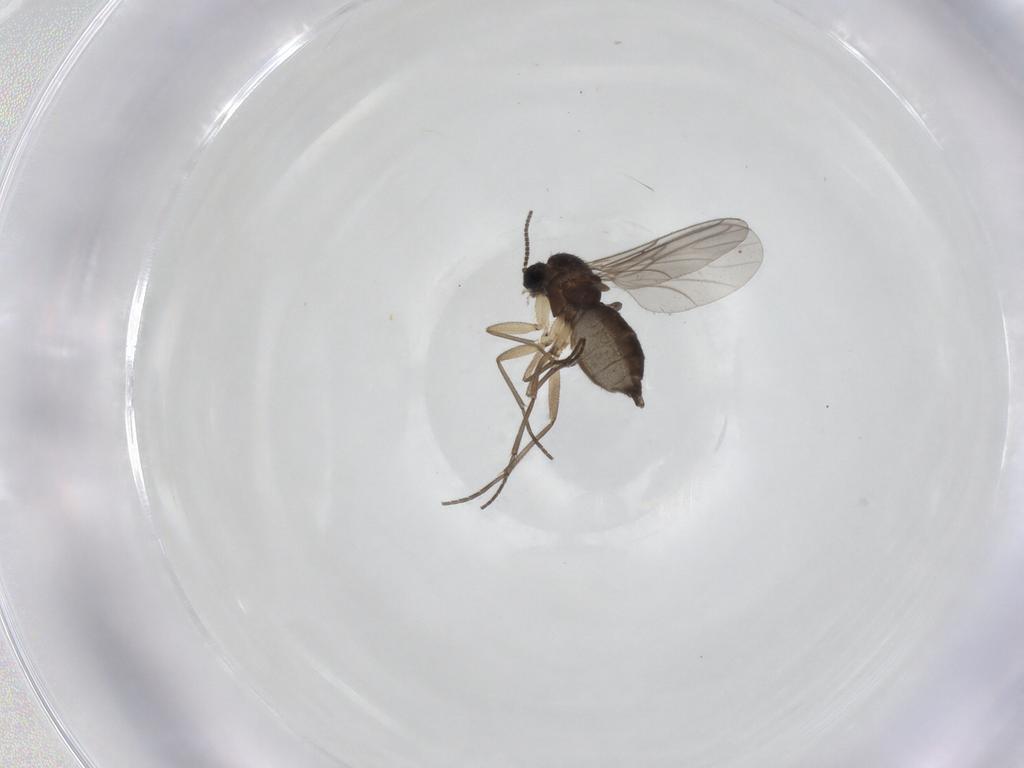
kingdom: Animalia
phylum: Arthropoda
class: Insecta
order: Diptera
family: Sciaridae
